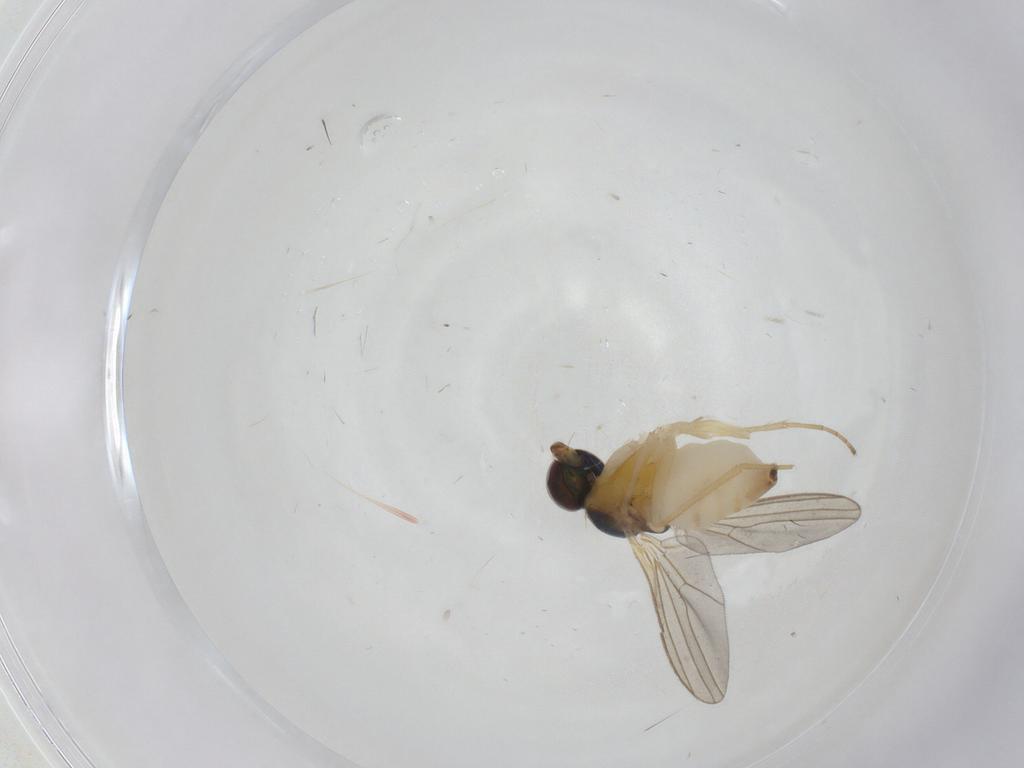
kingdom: Animalia
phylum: Arthropoda
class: Insecta
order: Diptera
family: Dolichopodidae
